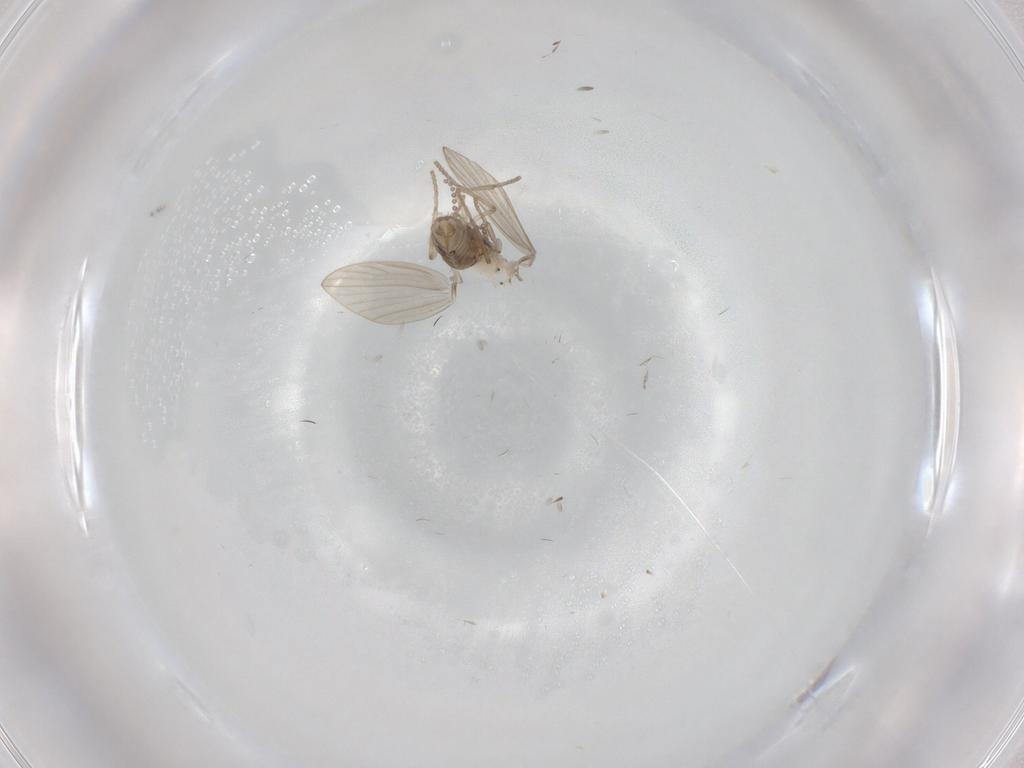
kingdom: Animalia
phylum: Arthropoda
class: Insecta
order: Diptera
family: Psychodidae
